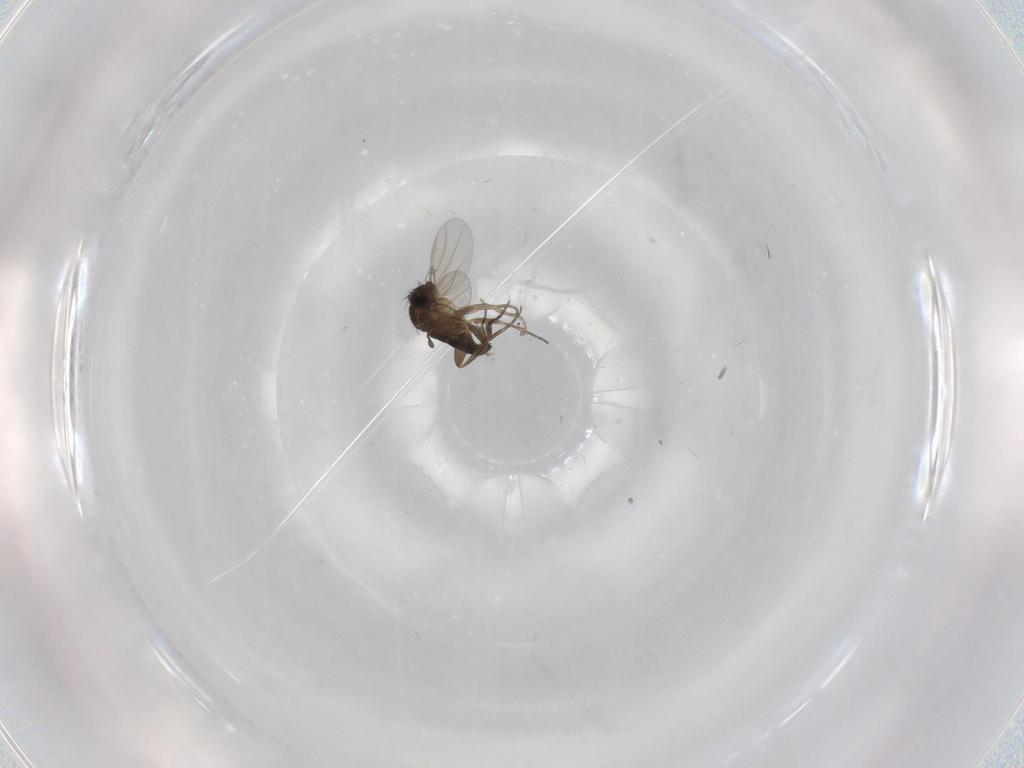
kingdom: Animalia
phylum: Arthropoda
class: Insecta
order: Diptera
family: Phoridae
